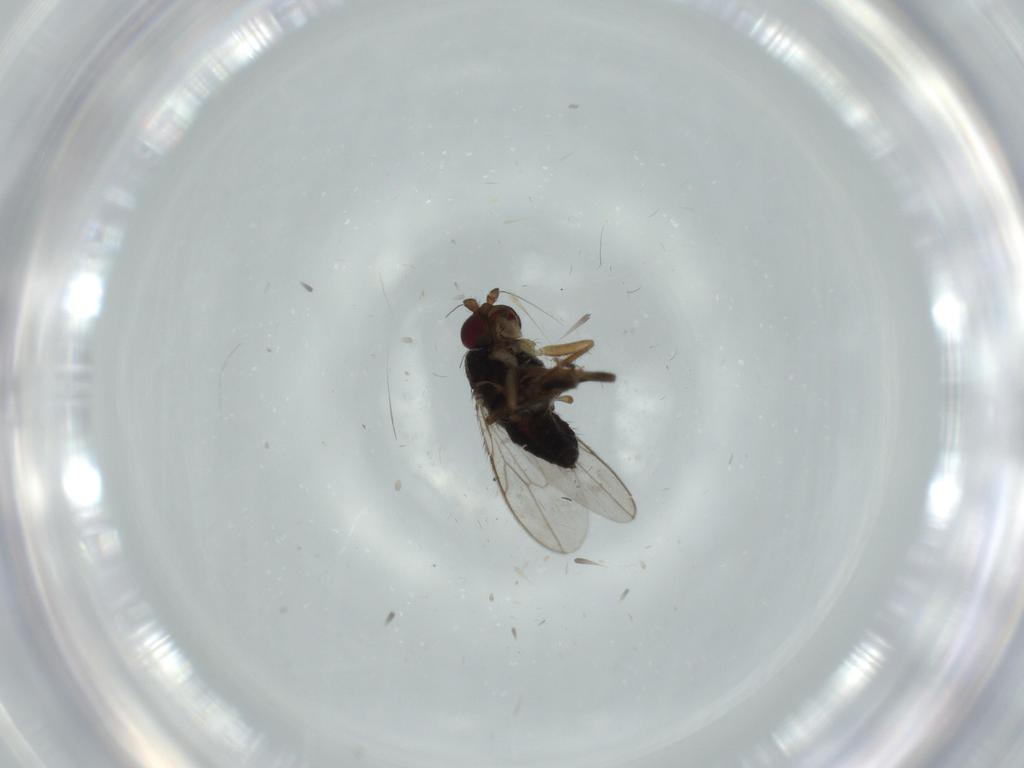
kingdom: Animalia
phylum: Arthropoda
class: Insecta
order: Diptera
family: Sphaeroceridae
